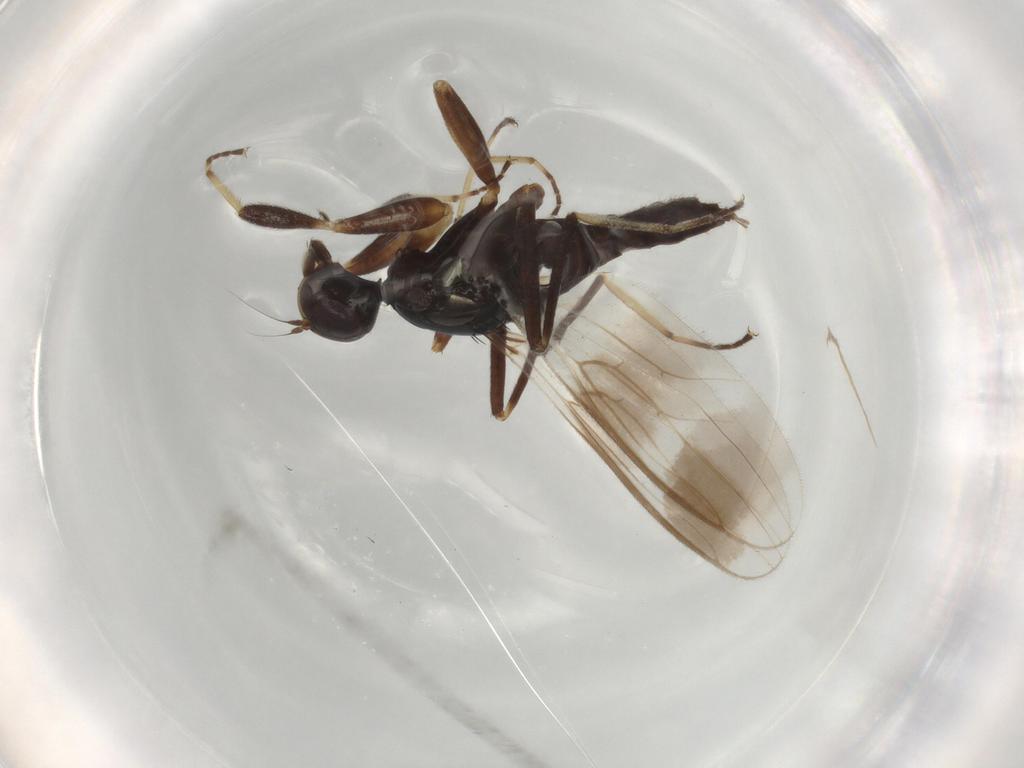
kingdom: Animalia
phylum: Arthropoda
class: Insecta
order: Diptera
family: Hybotidae
